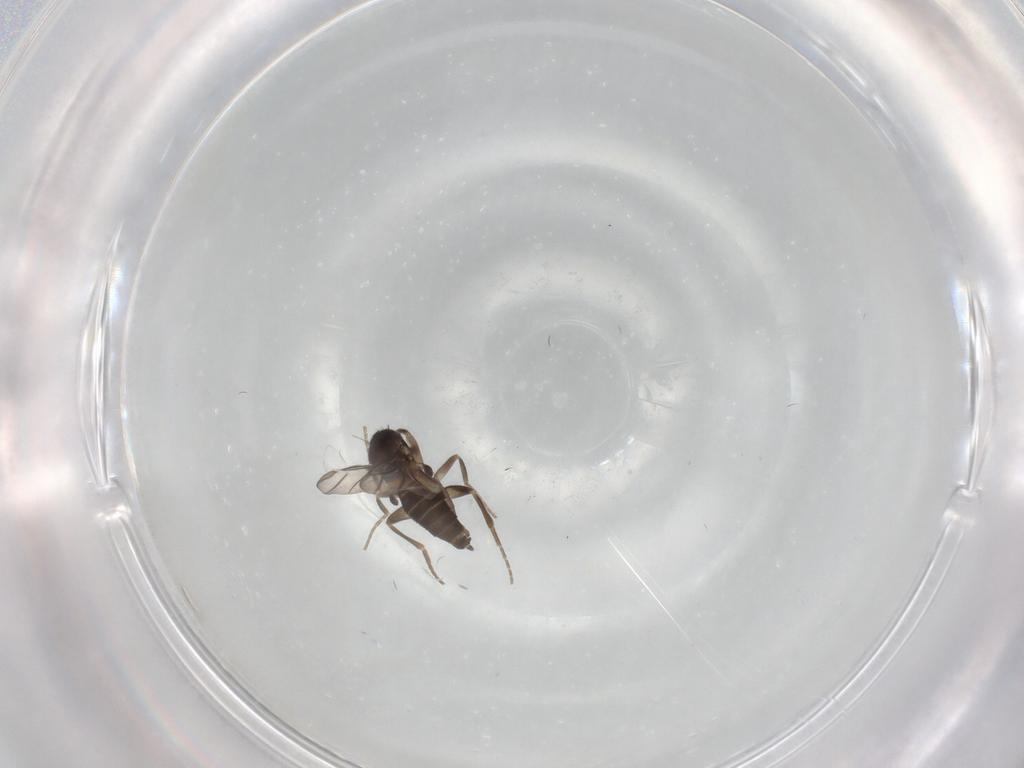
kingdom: Animalia
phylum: Arthropoda
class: Insecta
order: Diptera
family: Phoridae
